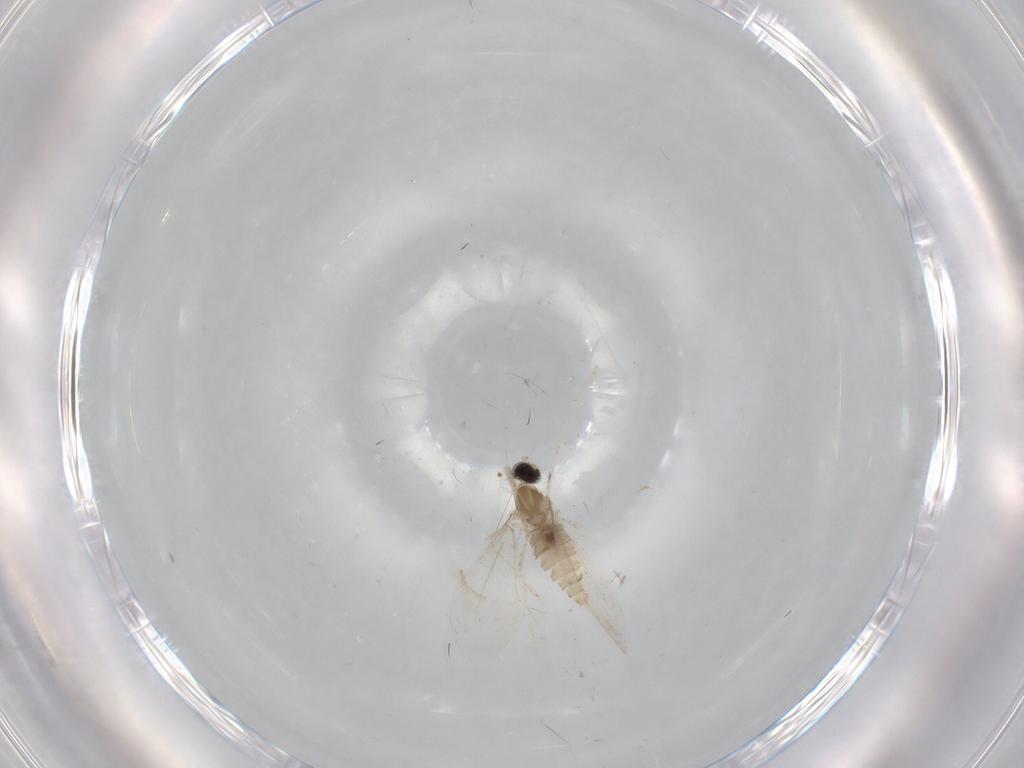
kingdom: Animalia
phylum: Arthropoda
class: Insecta
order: Diptera
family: Cecidomyiidae
